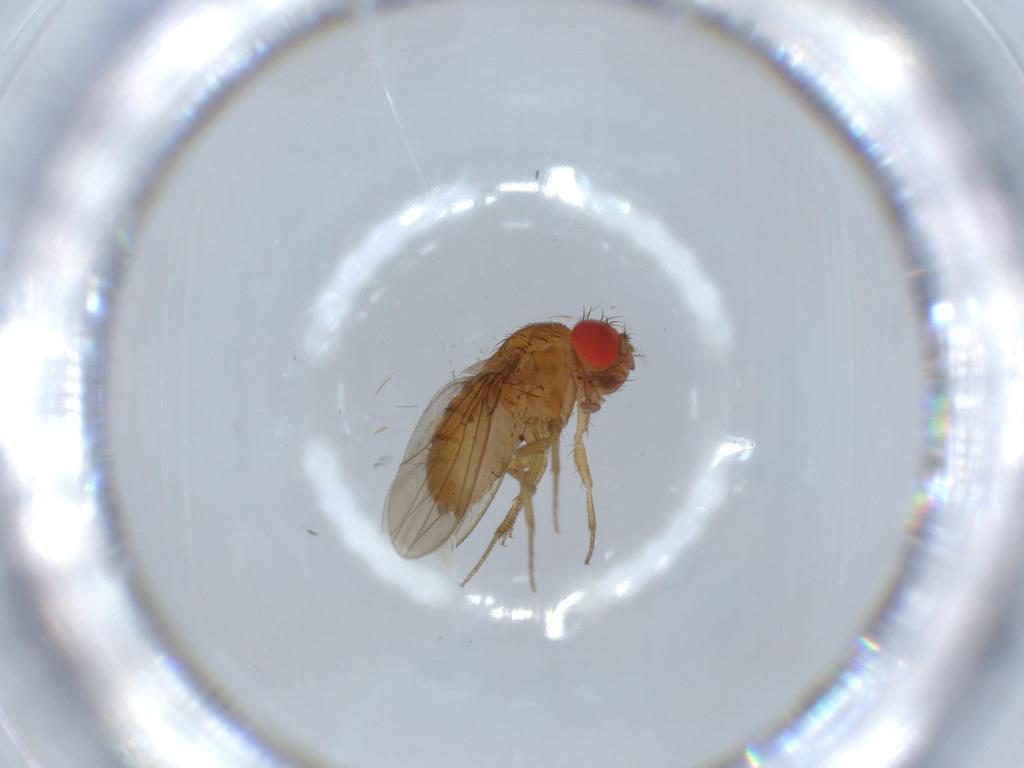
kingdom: Animalia
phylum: Arthropoda
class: Insecta
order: Diptera
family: Drosophilidae
